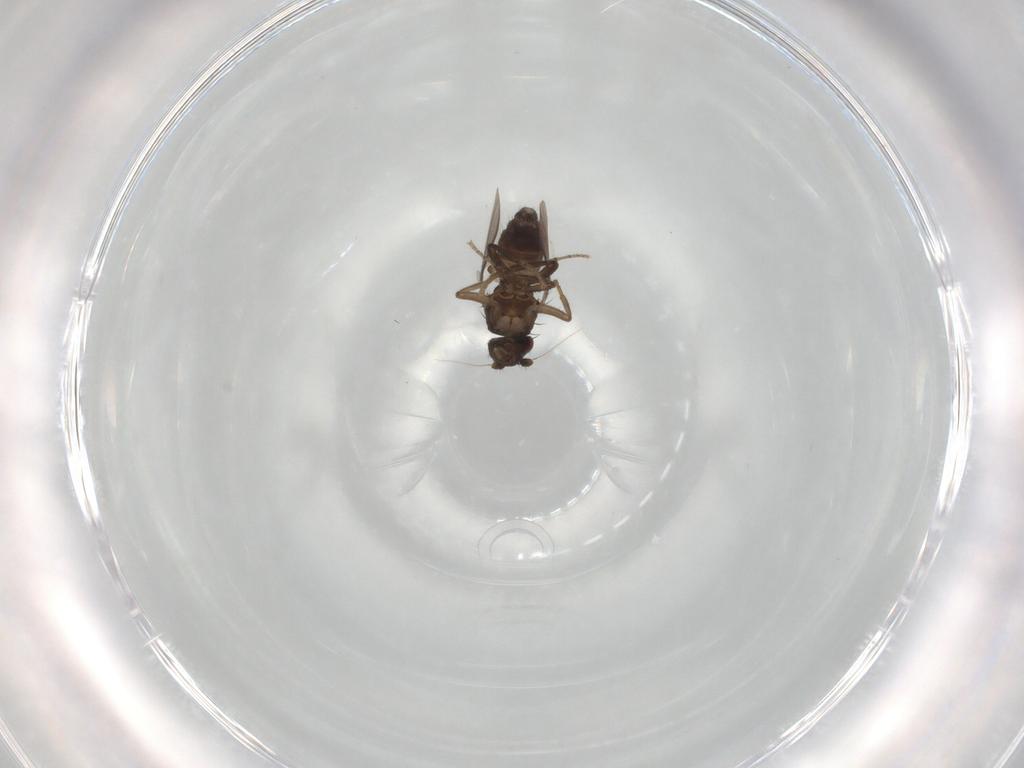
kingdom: Animalia
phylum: Arthropoda
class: Insecta
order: Diptera
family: Sphaeroceridae
